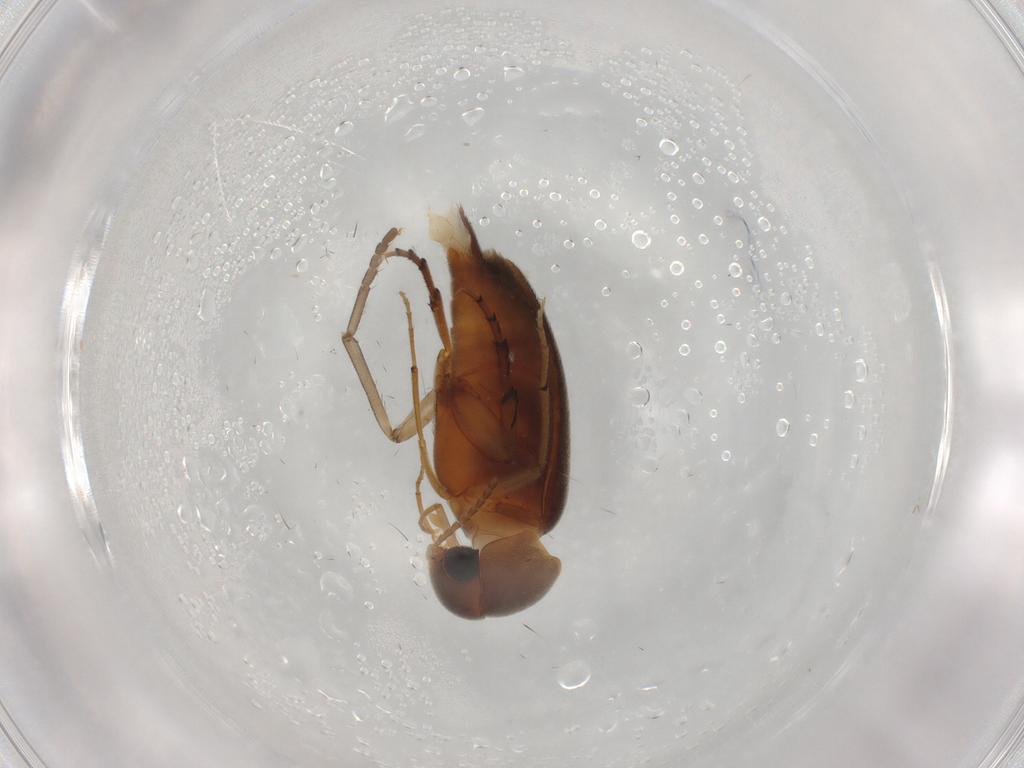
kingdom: Animalia
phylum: Arthropoda
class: Insecta
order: Coleoptera
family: Mordellidae
